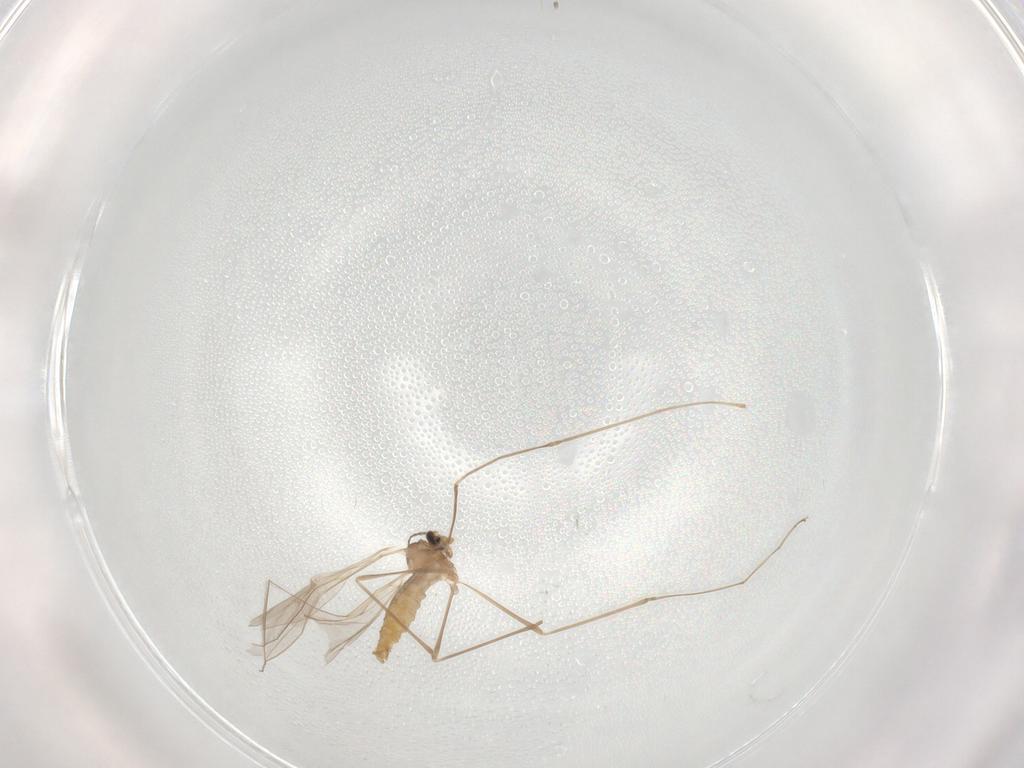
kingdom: Animalia
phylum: Arthropoda
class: Insecta
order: Diptera
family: Cecidomyiidae
